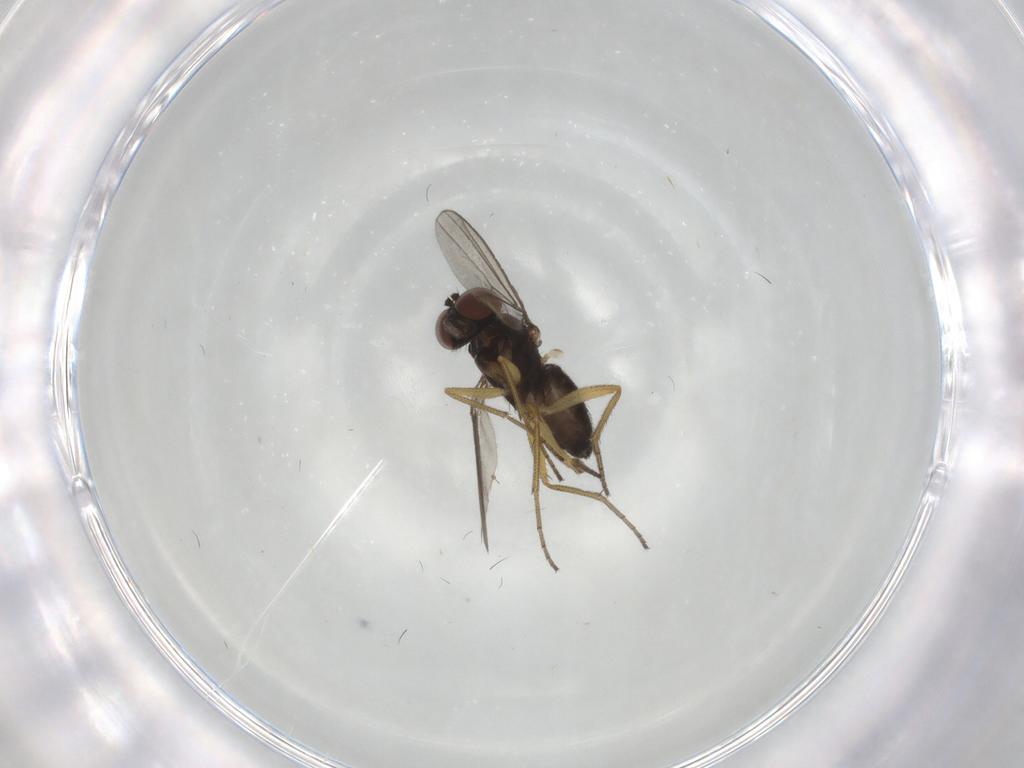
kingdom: Animalia
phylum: Arthropoda
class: Insecta
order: Diptera
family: Dolichopodidae
